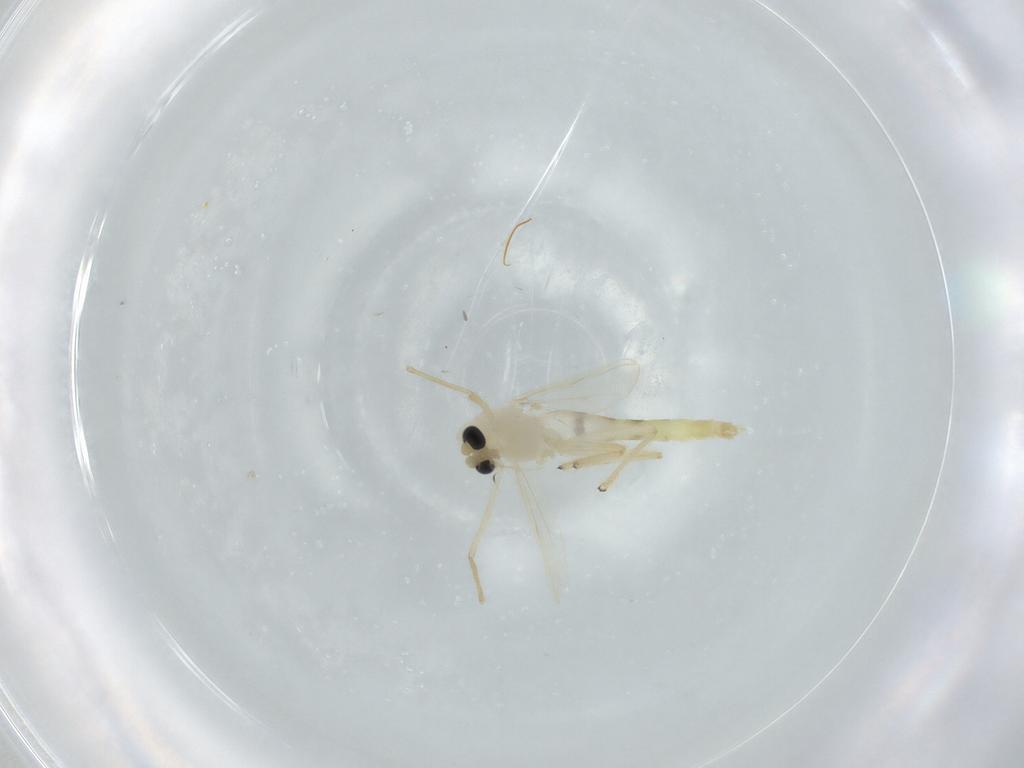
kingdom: Animalia
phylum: Arthropoda
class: Insecta
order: Diptera
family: Chironomidae
